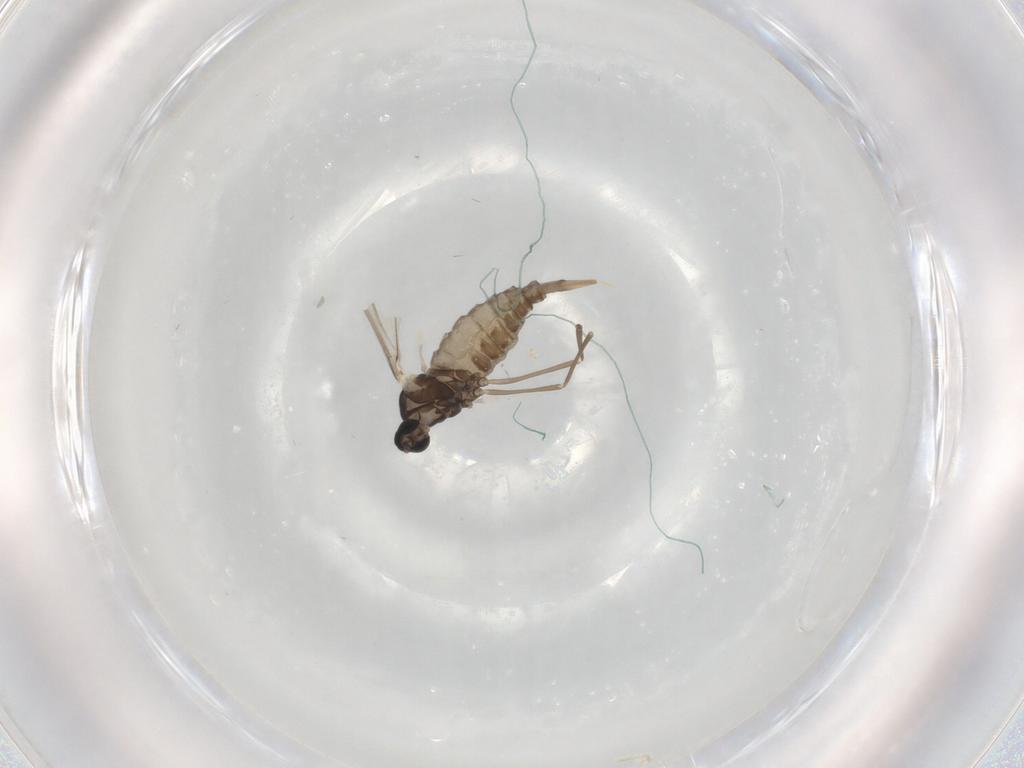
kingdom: Animalia
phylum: Arthropoda
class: Insecta
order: Diptera
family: Cecidomyiidae
